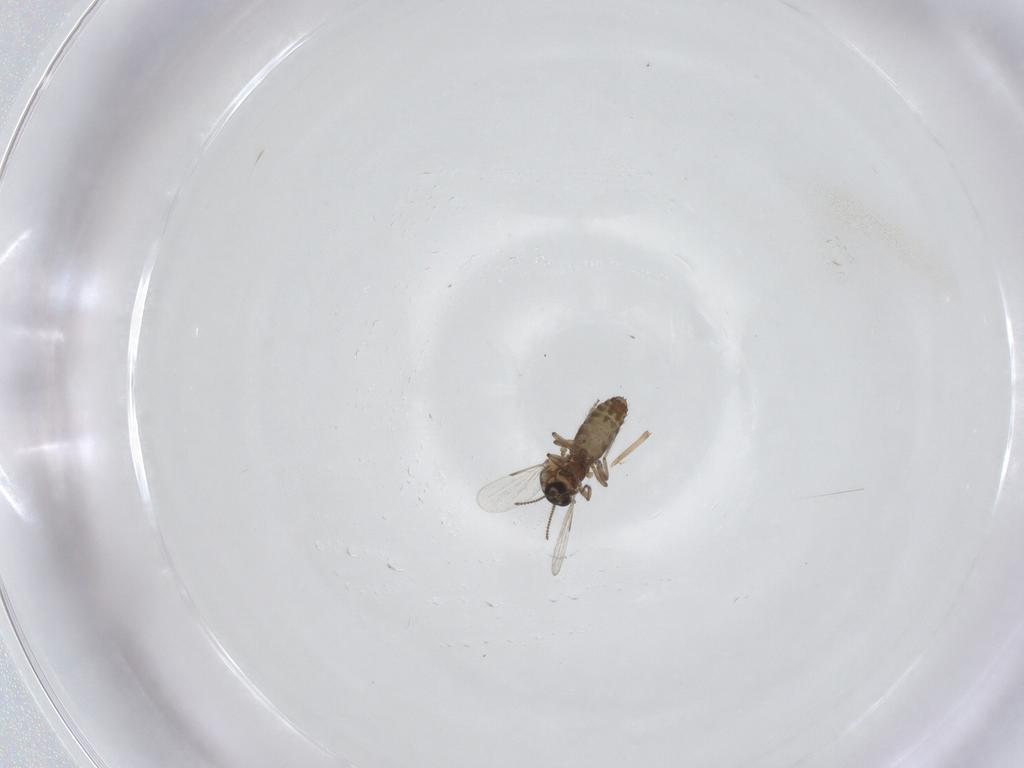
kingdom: Animalia
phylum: Arthropoda
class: Insecta
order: Diptera
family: Ceratopogonidae
